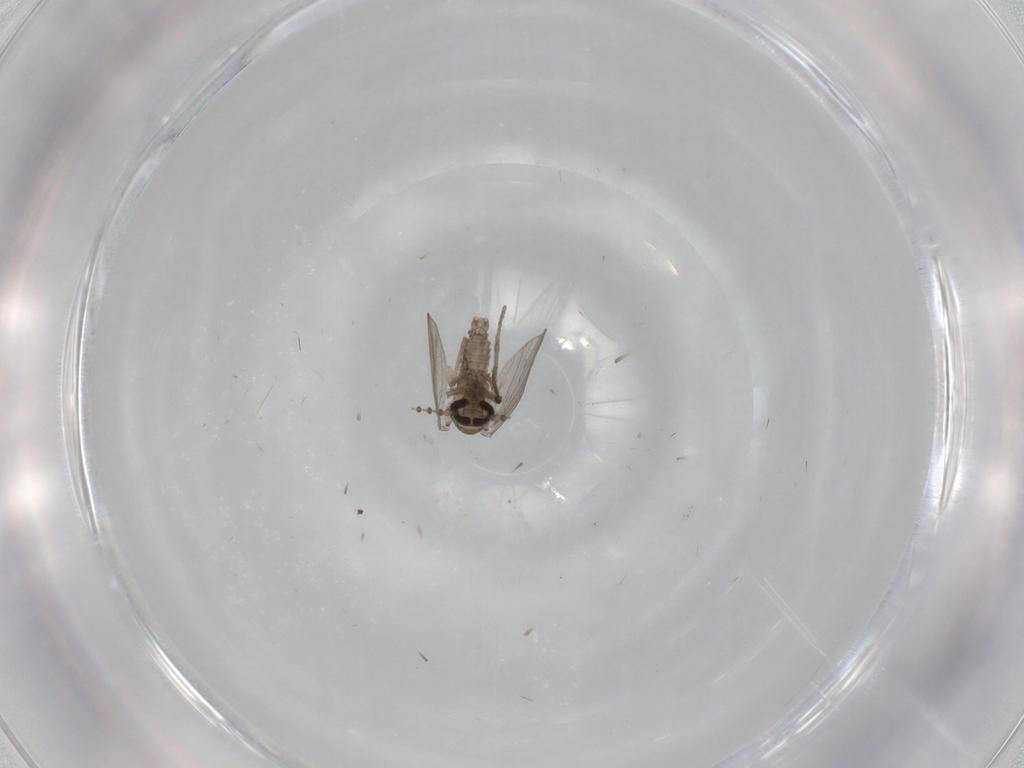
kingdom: Animalia
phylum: Arthropoda
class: Insecta
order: Diptera
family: Psychodidae
